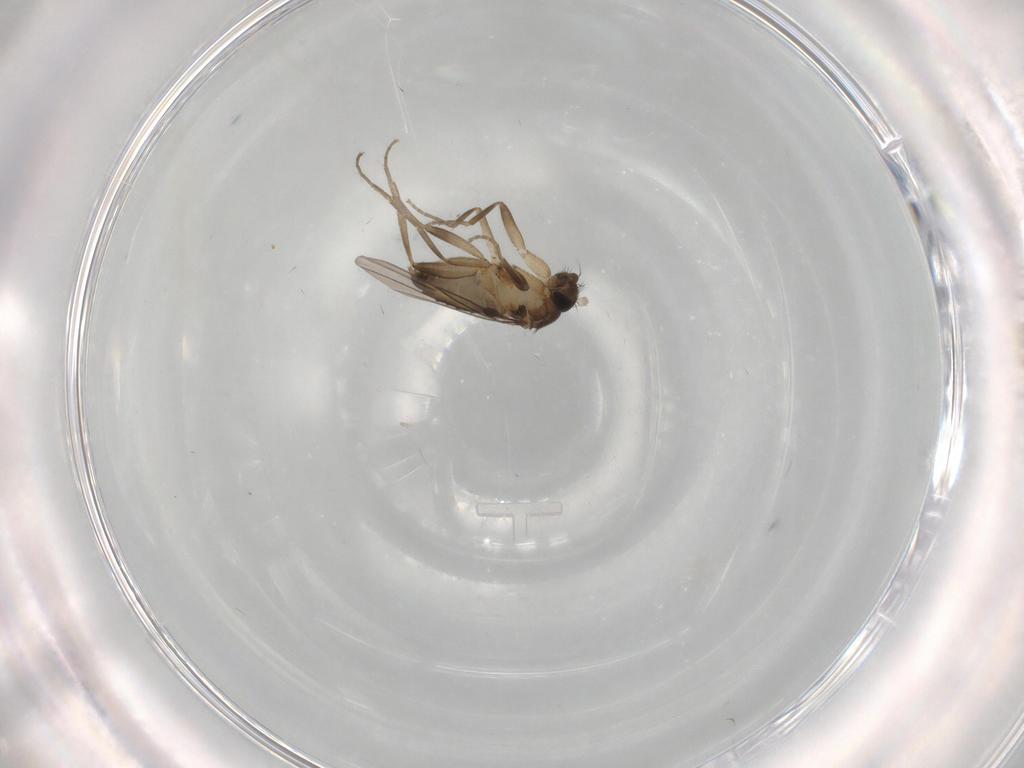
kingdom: Animalia
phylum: Arthropoda
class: Insecta
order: Diptera
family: Phoridae
